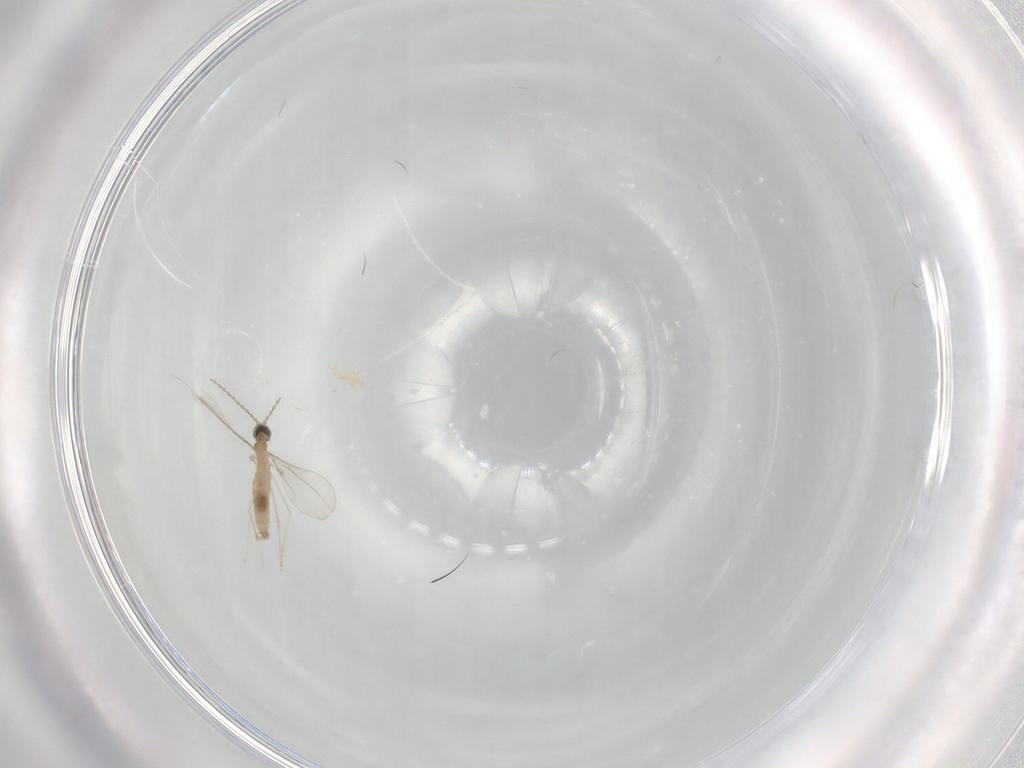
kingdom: Animalia
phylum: Arthropoda
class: Insecta
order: Diptera
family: Cecidomyiidae
